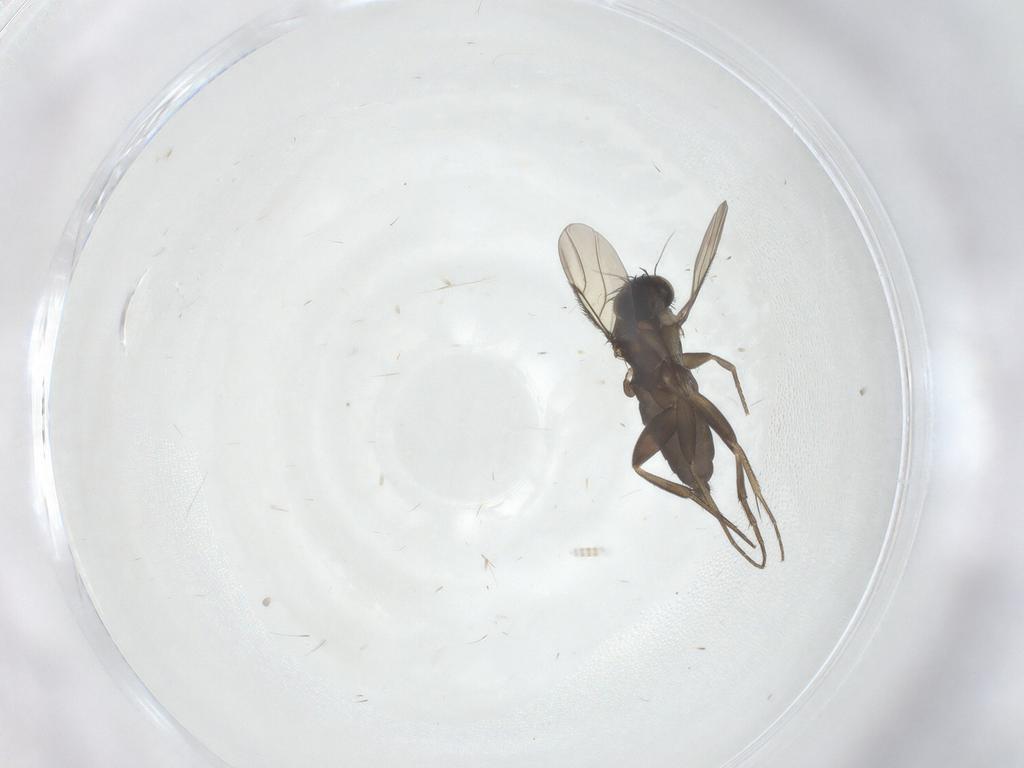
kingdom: Animalia
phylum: Arthropoda
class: Insecta
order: Diptera
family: Phoridae
